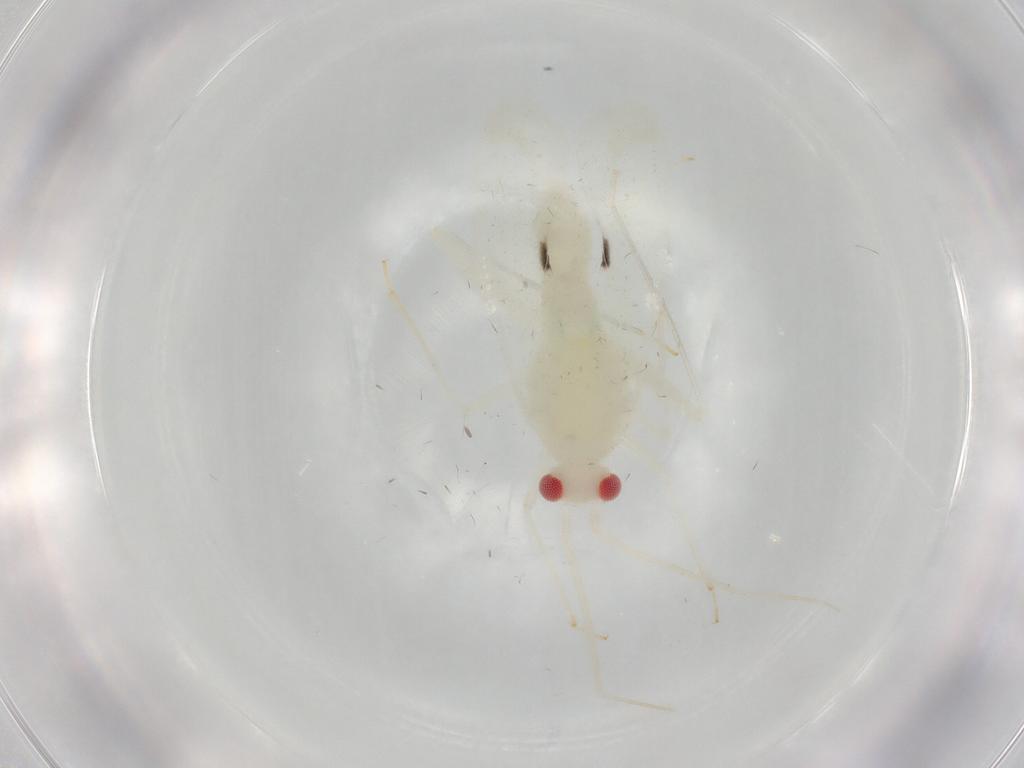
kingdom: Animalia
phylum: Arthropoda
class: Insecta
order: Hemiptera
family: Miridae
